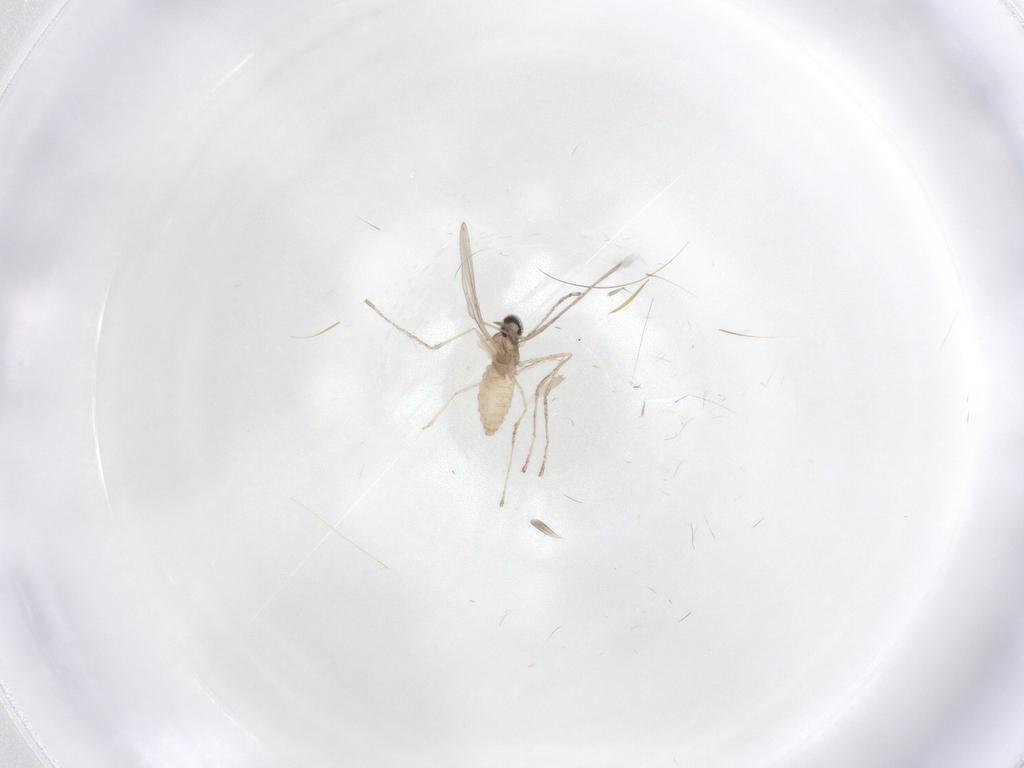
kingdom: Animalia
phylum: Arthropoda
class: Insecta
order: Diptera
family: Cecidomyiidae
